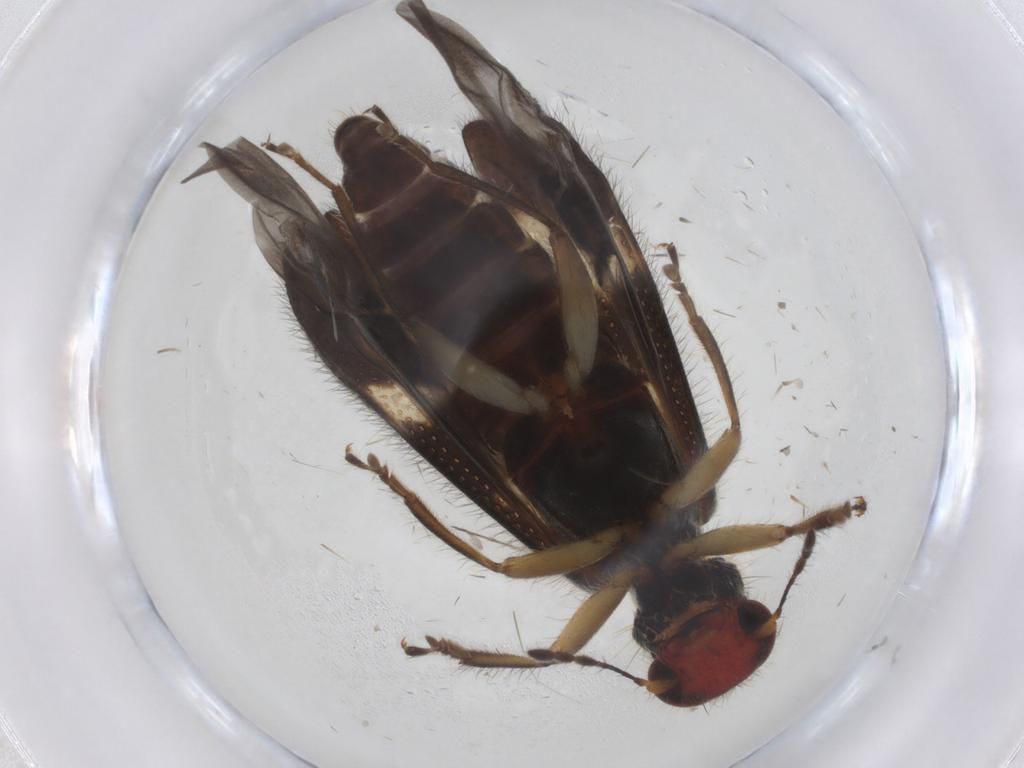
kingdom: Animalia
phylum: Arthropoda
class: Insecta
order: Coleoptera
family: Cleridae
